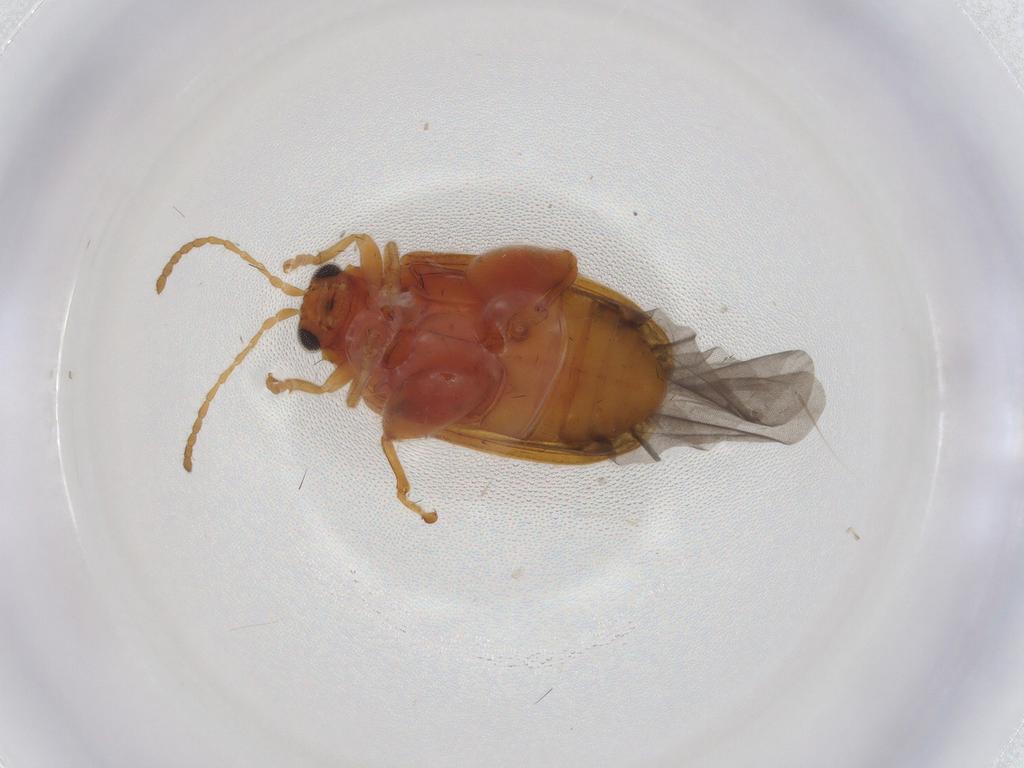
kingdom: Animalia
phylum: Arthropoda
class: Insecta
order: Coleoptera
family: Chrysomelidae
